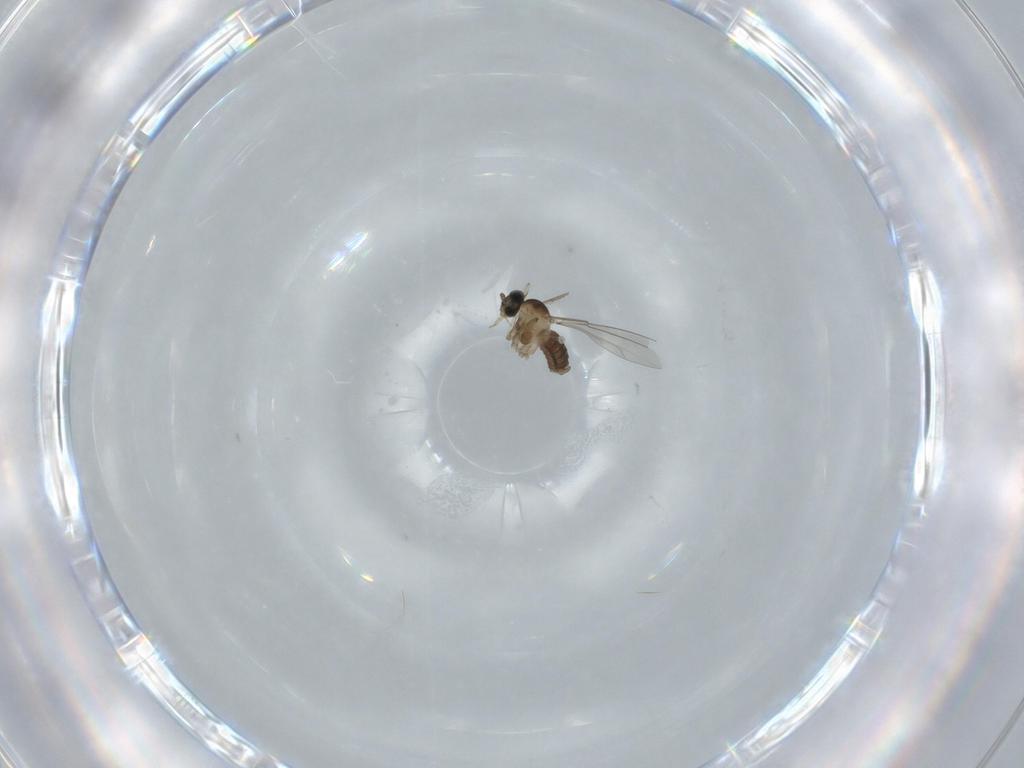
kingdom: Animalia
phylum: Arthropoda
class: Insecta
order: Diptera
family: Cecidomyiidae
